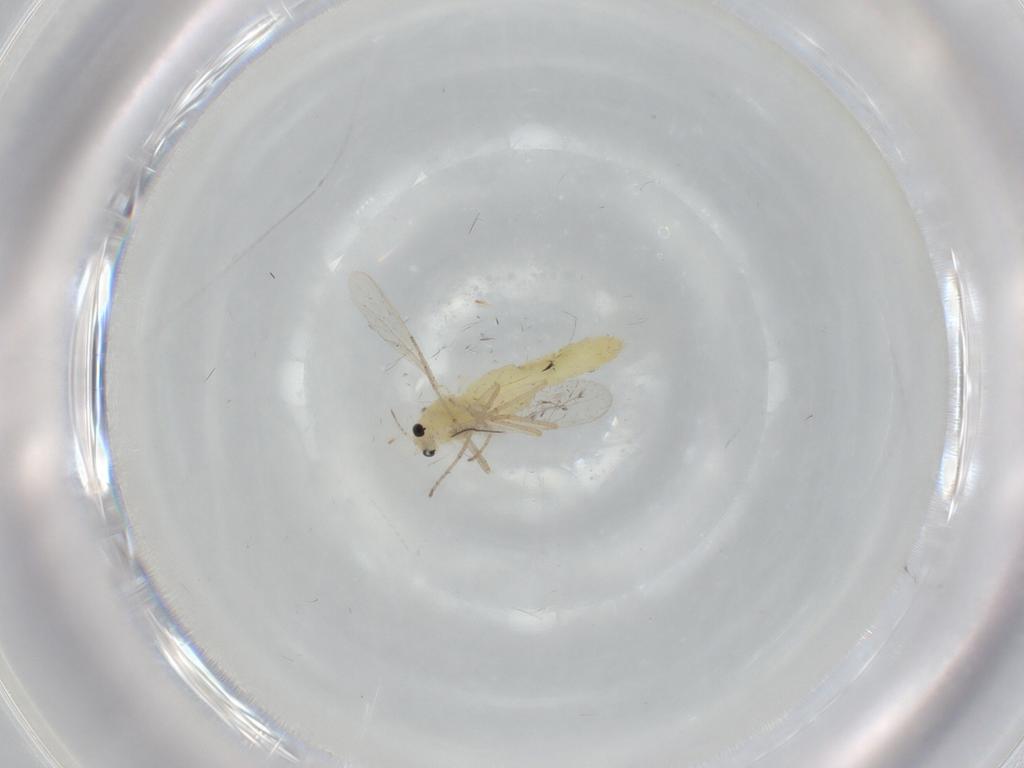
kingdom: Animalia
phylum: Arthropoda
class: Insecta
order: Diptera
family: Chironomidae
